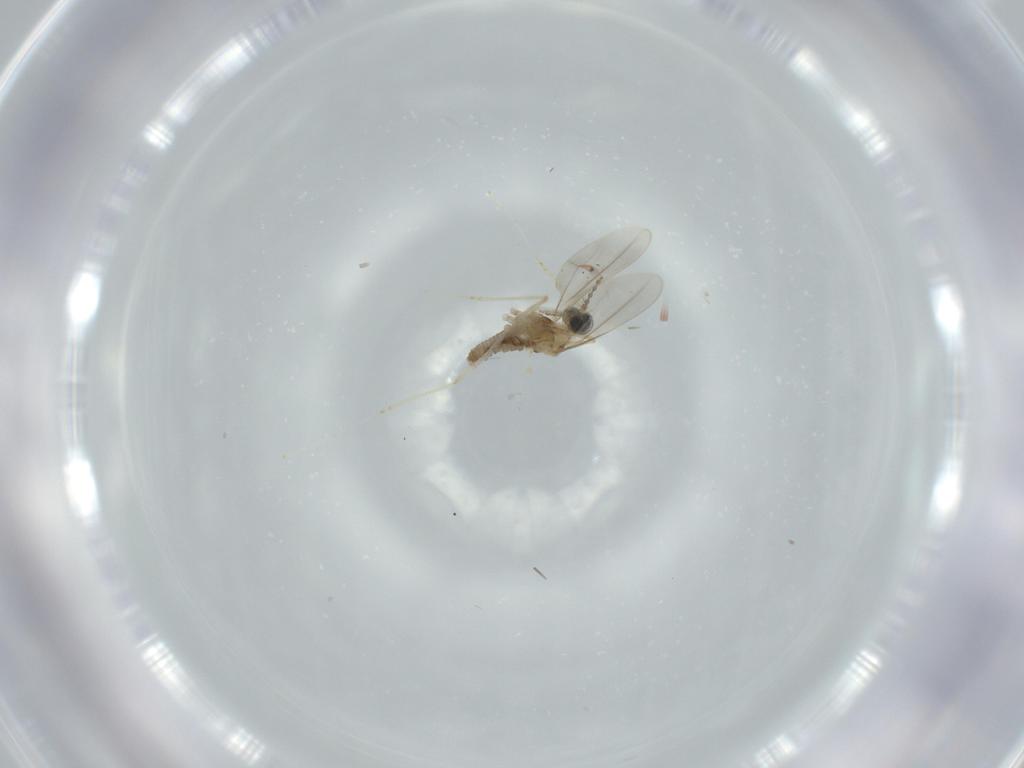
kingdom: Animalia
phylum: Arthropoda
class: Insecta
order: Diptera
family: Cecidomyiidae
